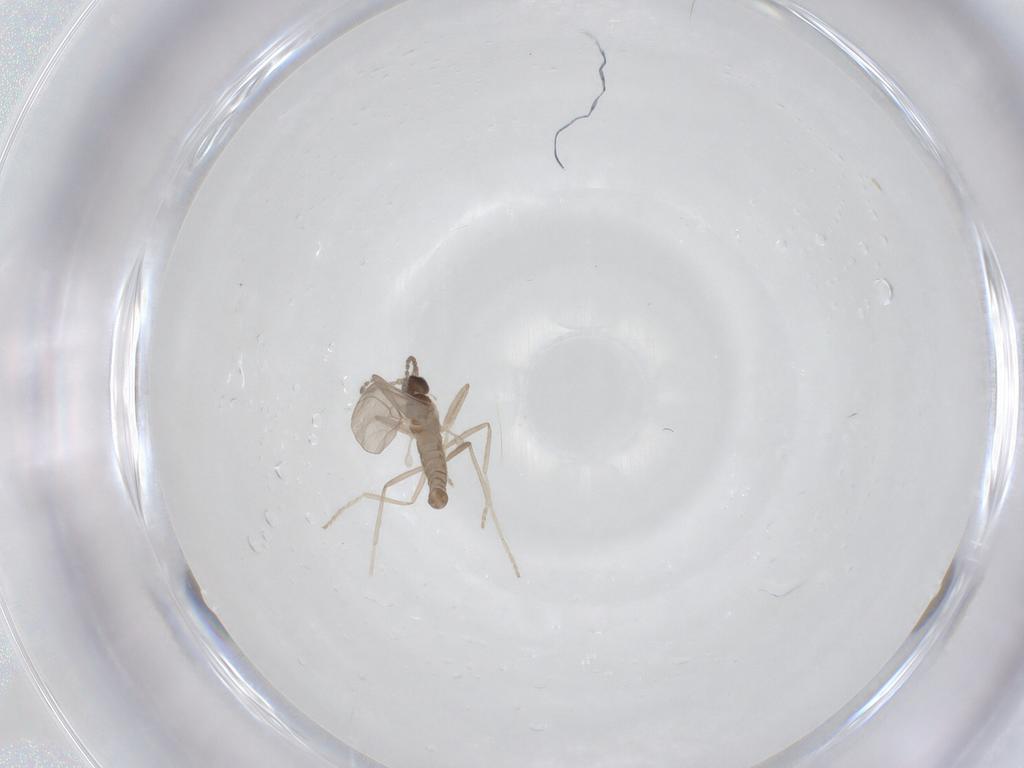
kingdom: Animalia
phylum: Arthropoda
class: Insecta
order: Diptera
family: Cecidomyiidae
